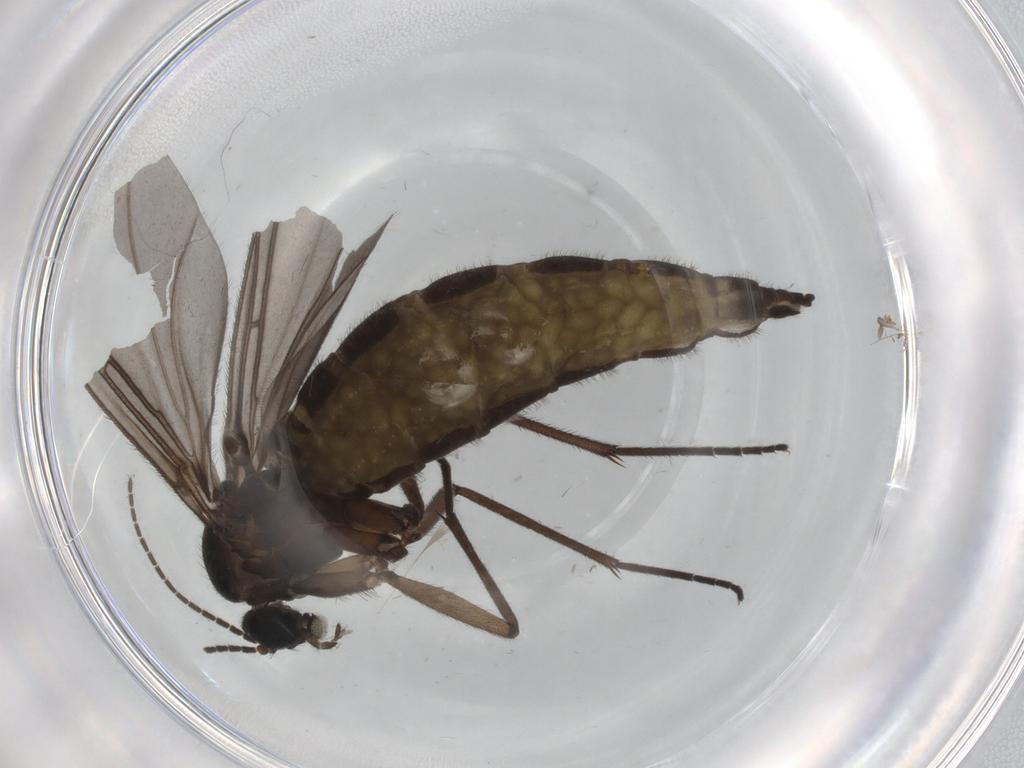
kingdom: Animalia
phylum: Arthropoda
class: Insecta
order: Diptera
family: Sciaridae
